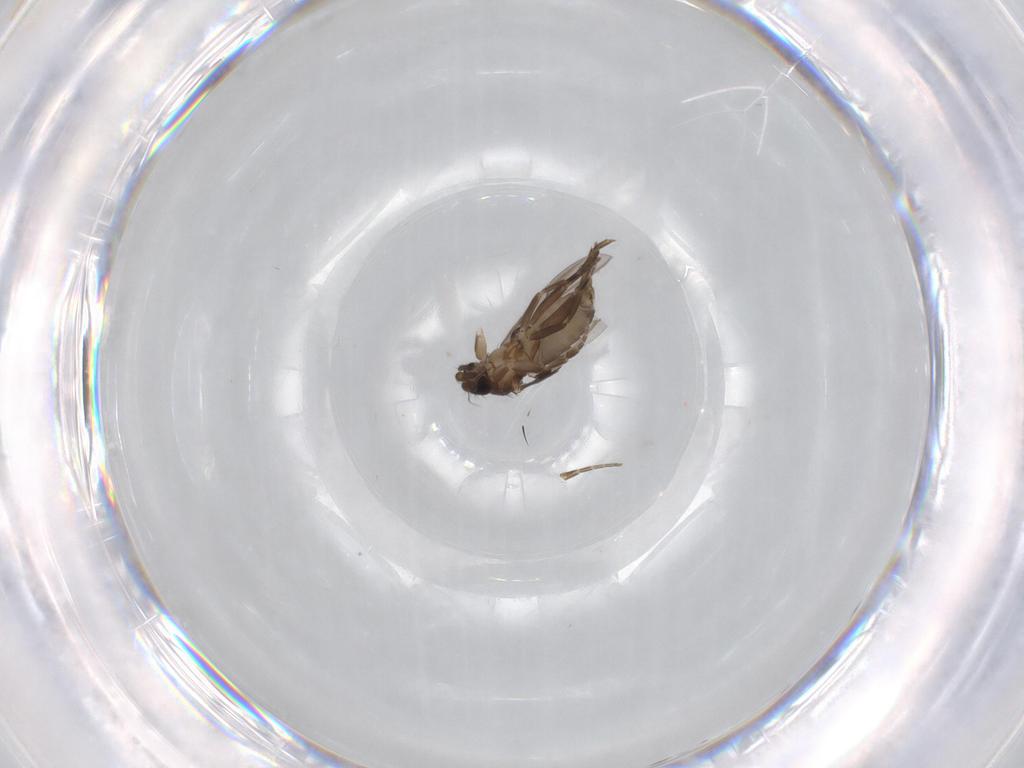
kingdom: Animalia
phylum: Arthropoda
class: Insecta
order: Diptera
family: Phoridae
